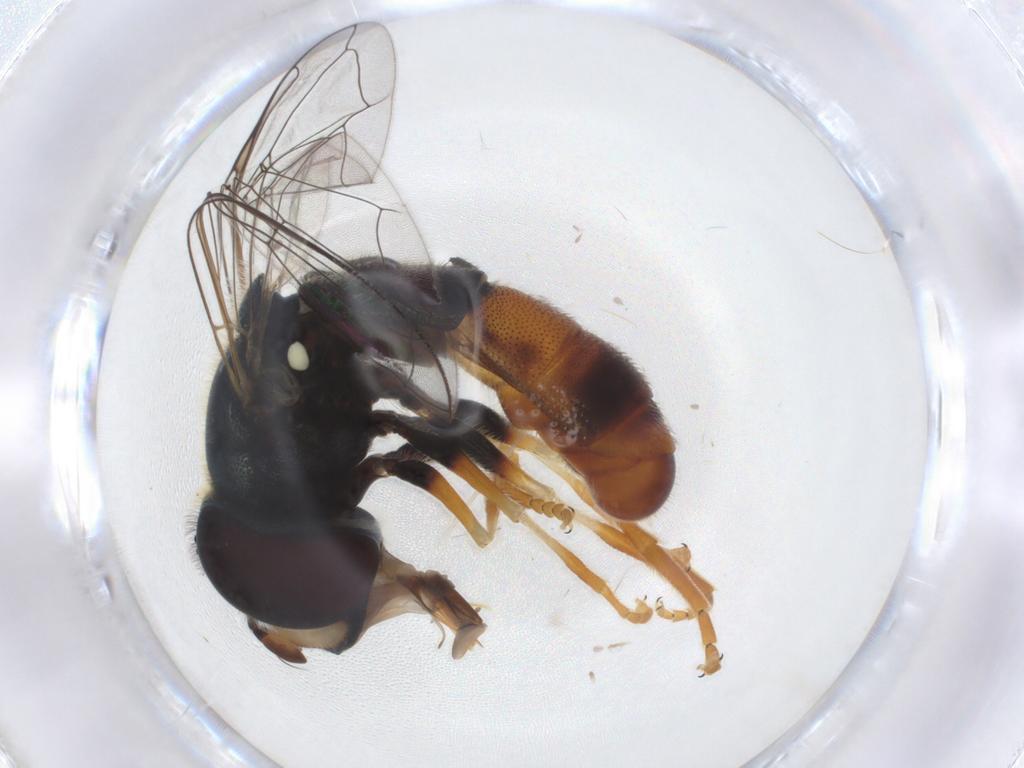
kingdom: Animalia
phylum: Arthropoda
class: Insecta
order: Diptera
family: Syrphidae
